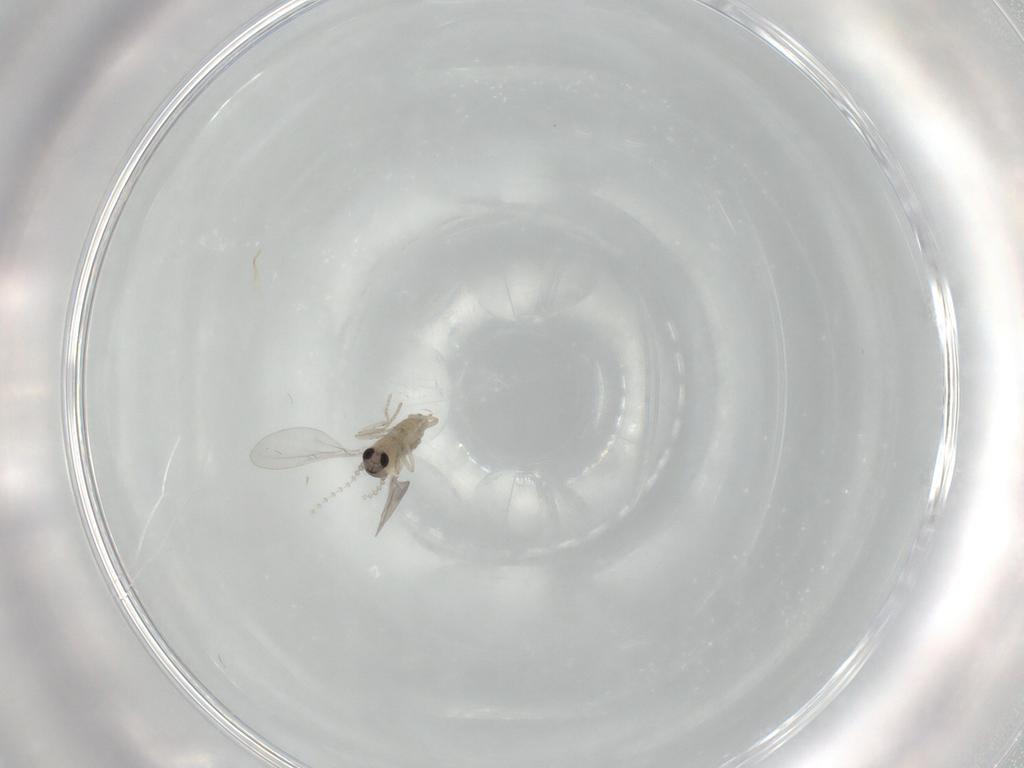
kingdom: Animalia
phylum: Arthropoda
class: Insecta
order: Diptera
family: Cecidomyiidae
